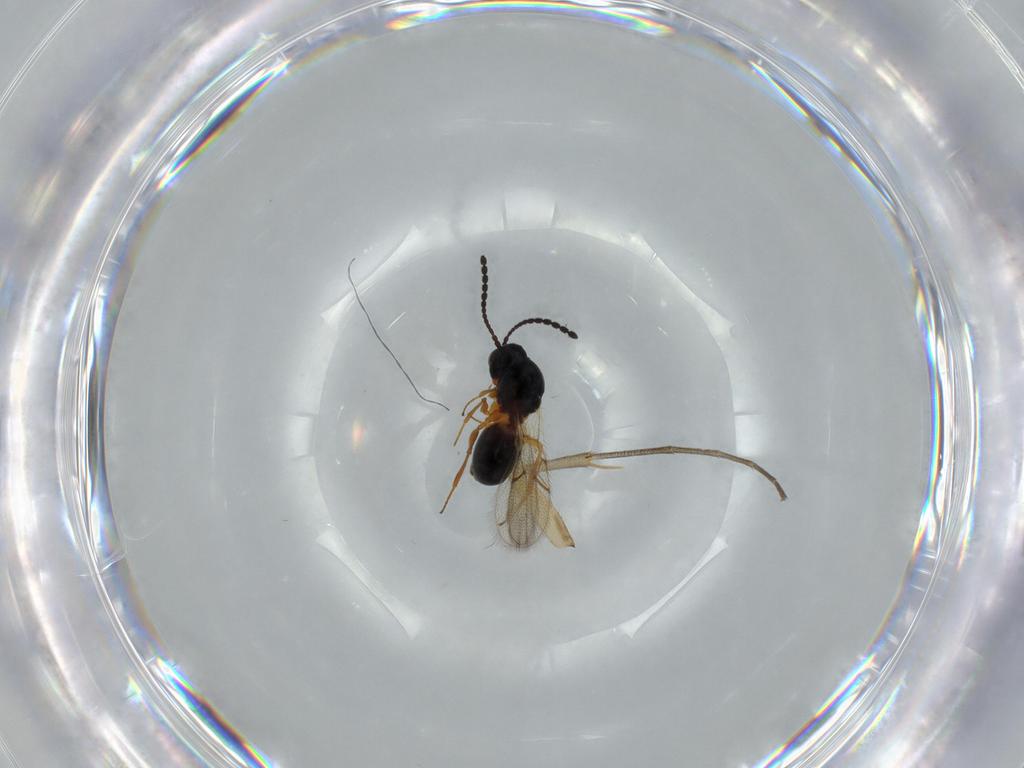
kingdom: Animalia
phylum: Arthropoda
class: Insecta
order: Hymenoptera
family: Figitidae
